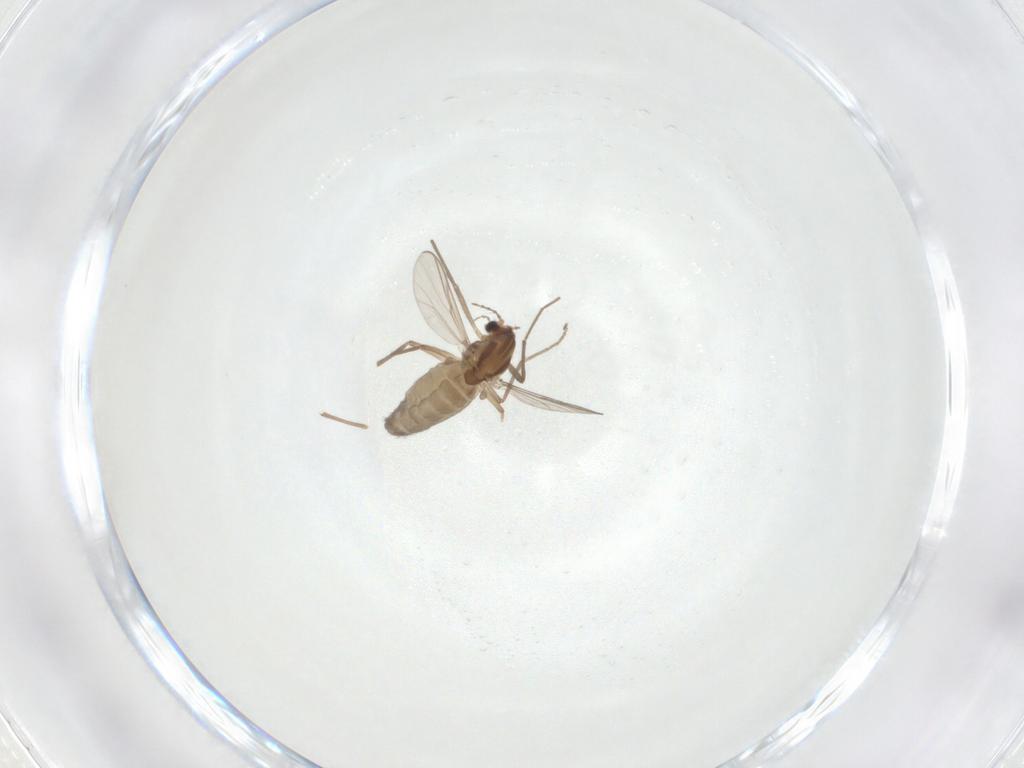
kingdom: Animalia
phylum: Arthropoda
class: Insecta
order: Diptera
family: Chironomidae
